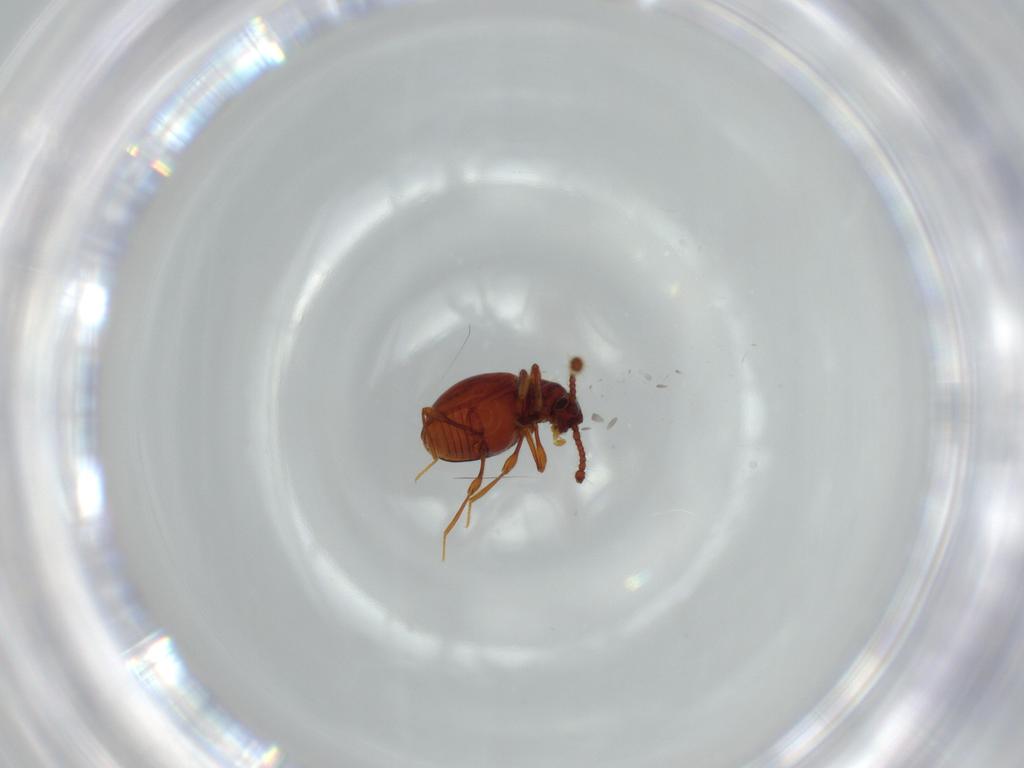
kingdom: Animalia
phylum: Arthropoda
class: Insecta
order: Coleoptera
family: Staphylinidae
